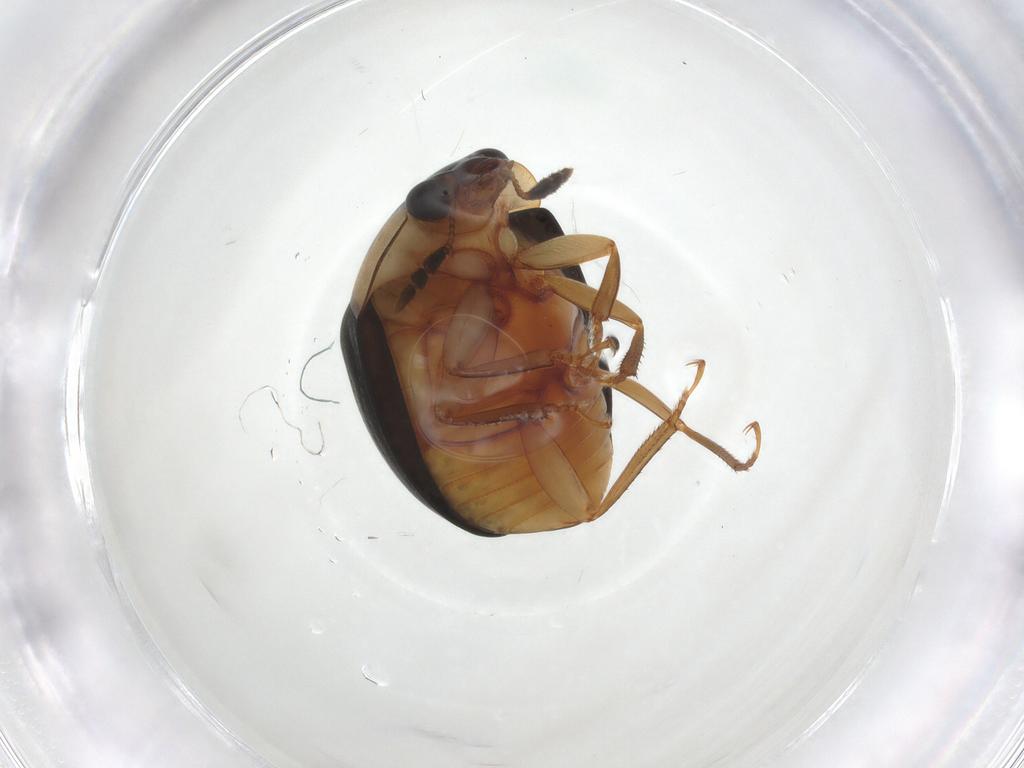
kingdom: Animalia
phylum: Arthropoda
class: Insecta
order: Coleoptera
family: Nitidulidae
